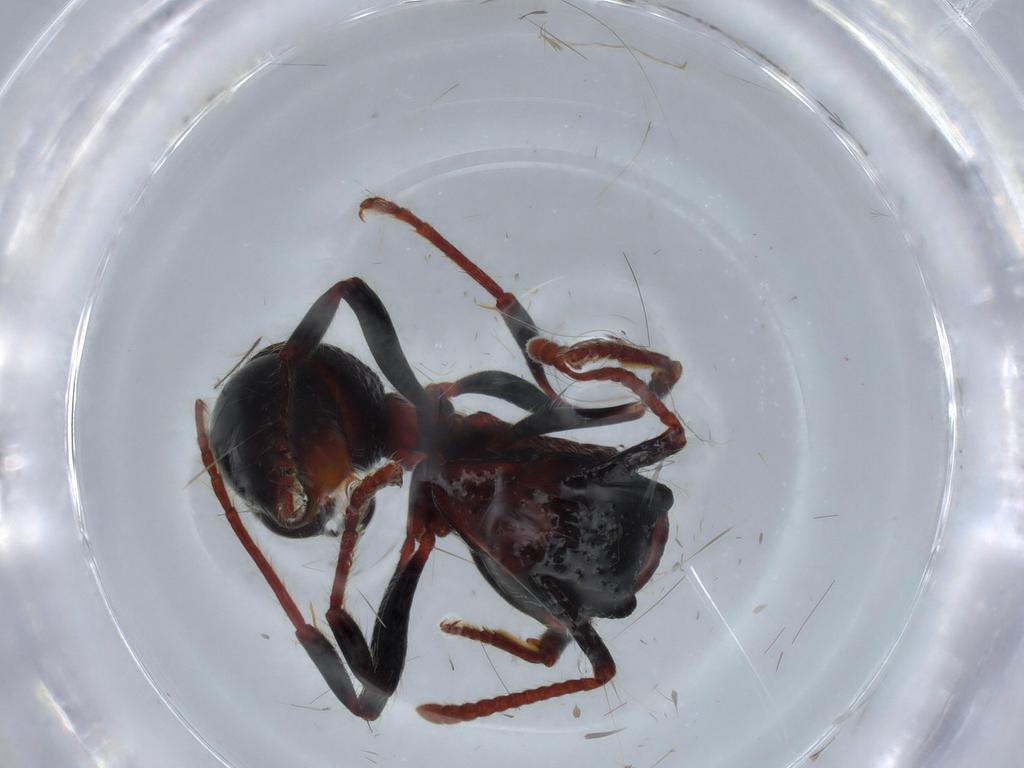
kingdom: Animalia
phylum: Arthropoda
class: Insecta
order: Hymenoptera
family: Formicidae
